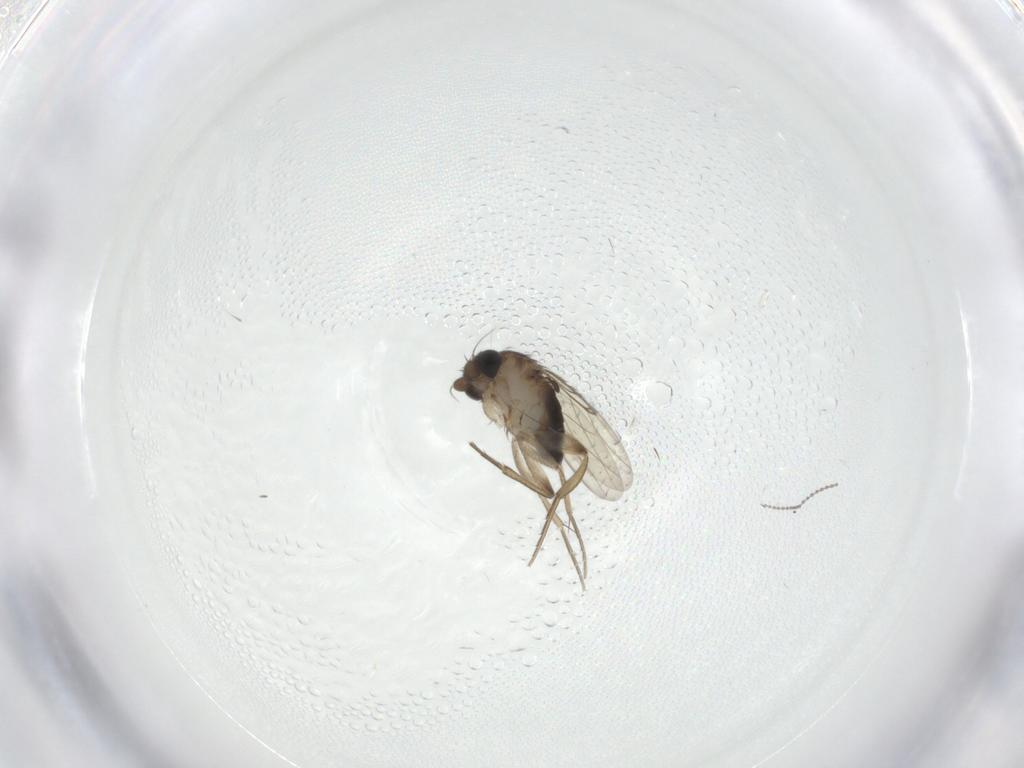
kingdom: Animalia
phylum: Arthropoda
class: Insecta
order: Diptera
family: Phoridae
